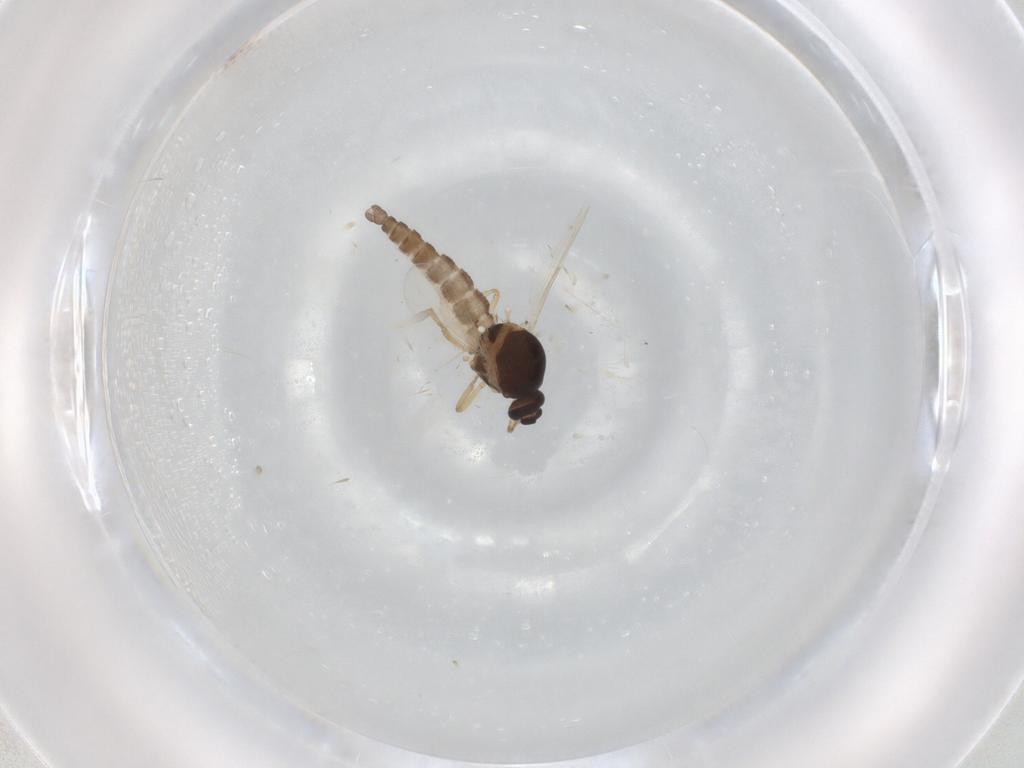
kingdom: Animalia
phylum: Arthropoda
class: Insecta
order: Diptera
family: Ceratopogonidae
